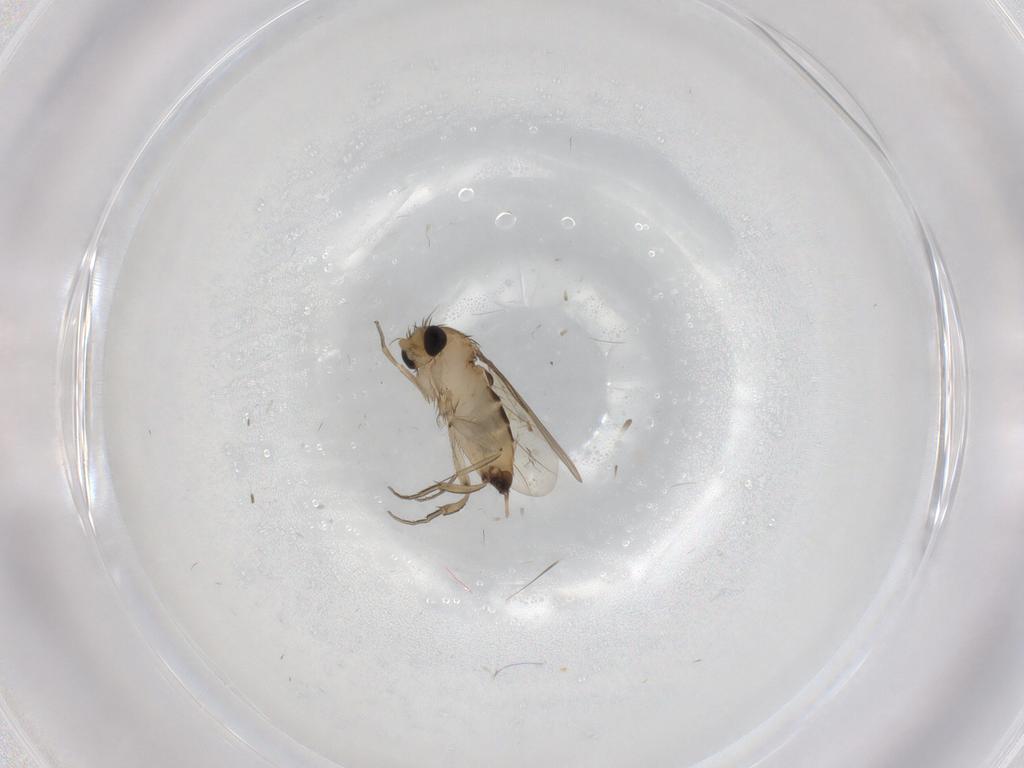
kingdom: Animalia
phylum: Arthropoda
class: Insecta
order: Diptera
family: Phoridae
